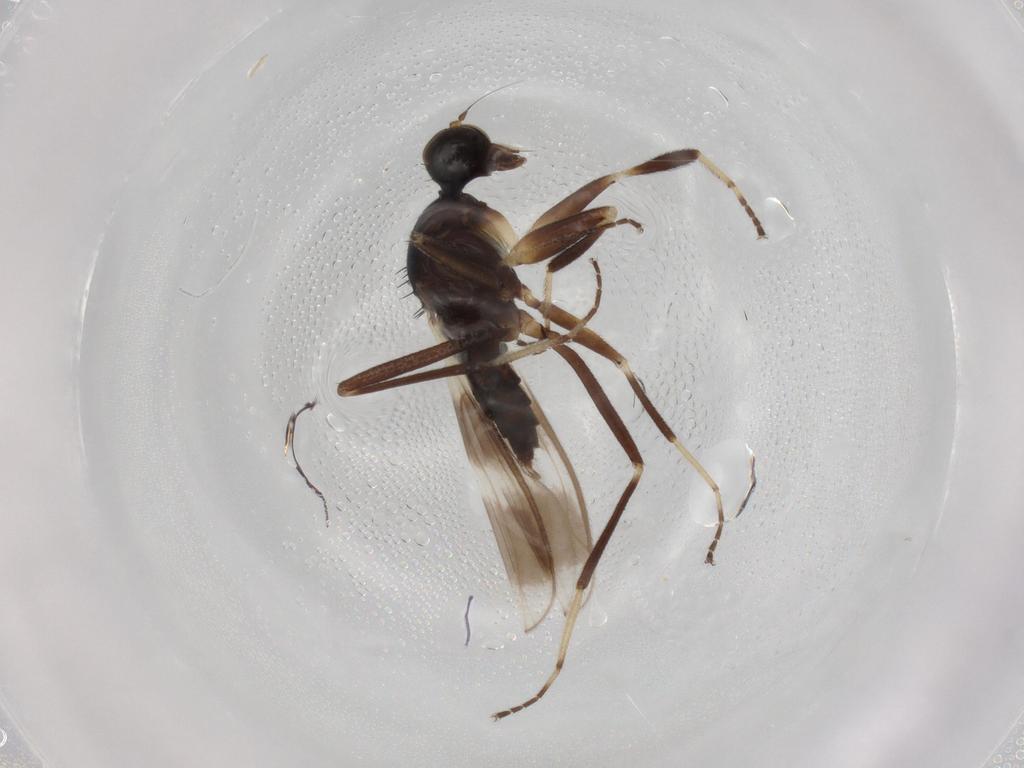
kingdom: Animalia
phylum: Arthropoda
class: Insecta
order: Diptera
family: Hybotidae
